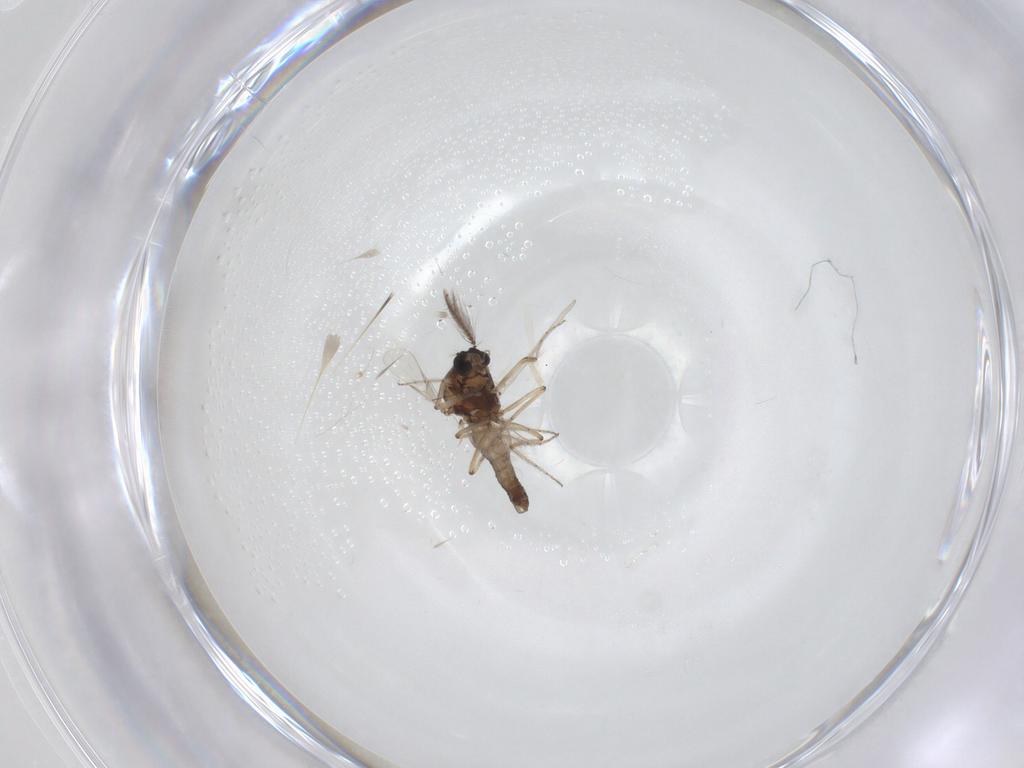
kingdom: Animalia
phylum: Arthropoda
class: Insecta
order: Diptera
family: Ceratopogonidae
